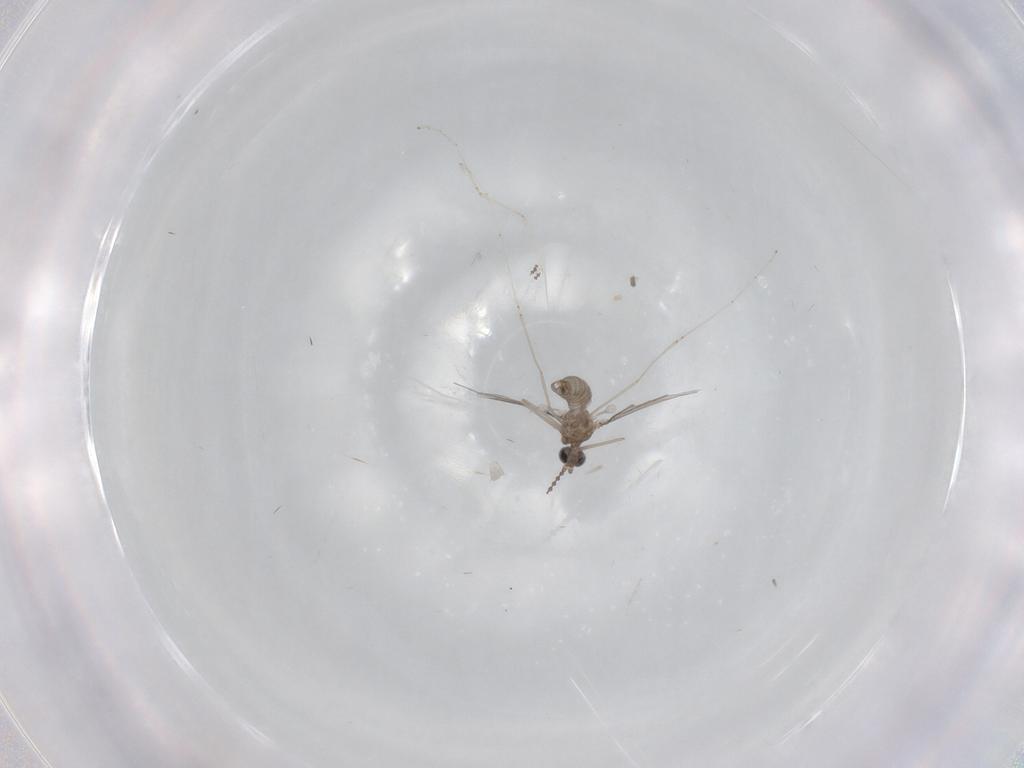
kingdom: Animalia
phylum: Arthropoda
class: Insecta
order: Diptera
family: Cecidomyiidae
